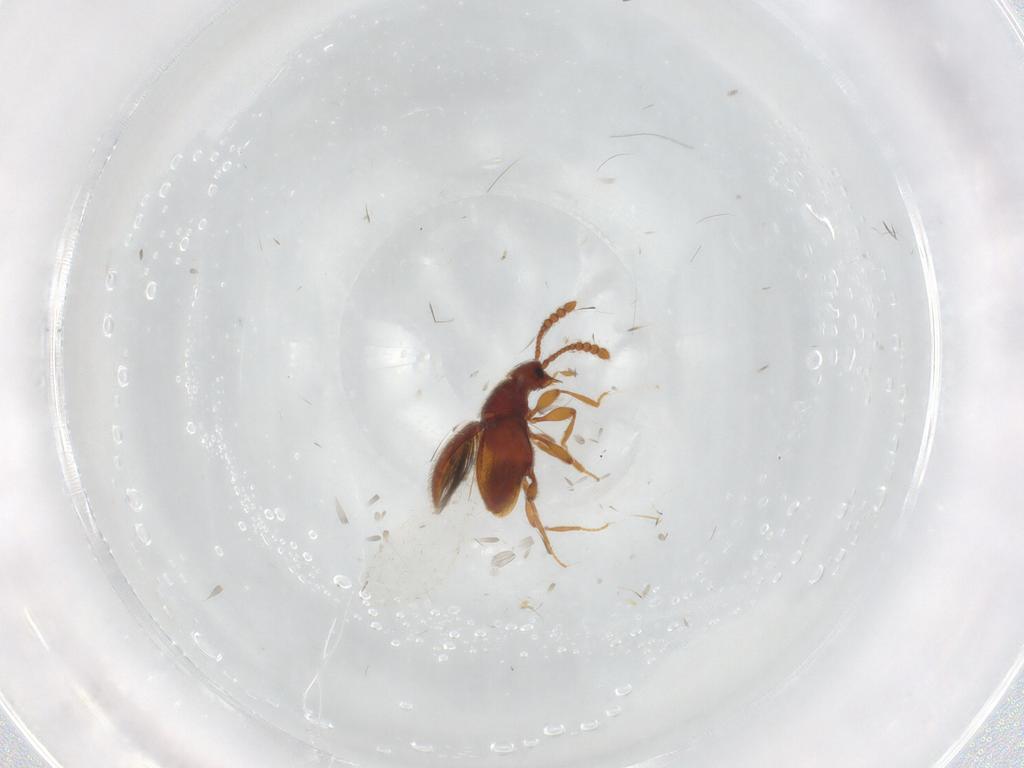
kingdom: Animalia
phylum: Arthropoda
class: Insecta
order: Coleoptera
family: Staphylinidae
